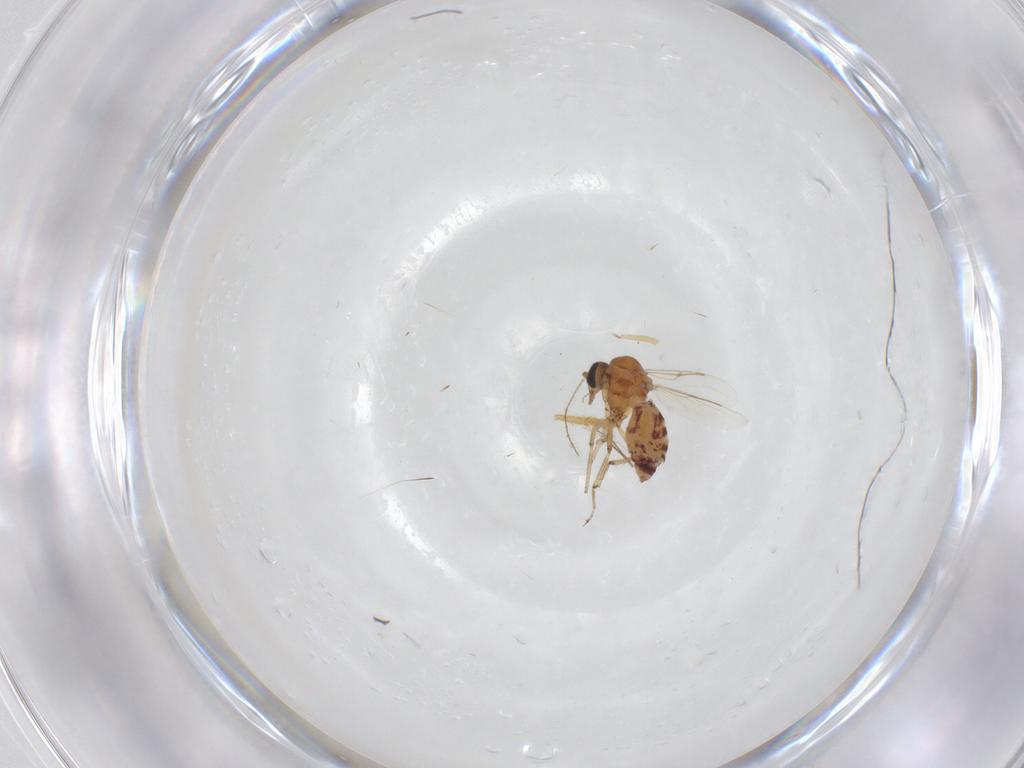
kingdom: Animalia
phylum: Arthropoda
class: Insecta
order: Diptera
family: Ceratopogonidae
